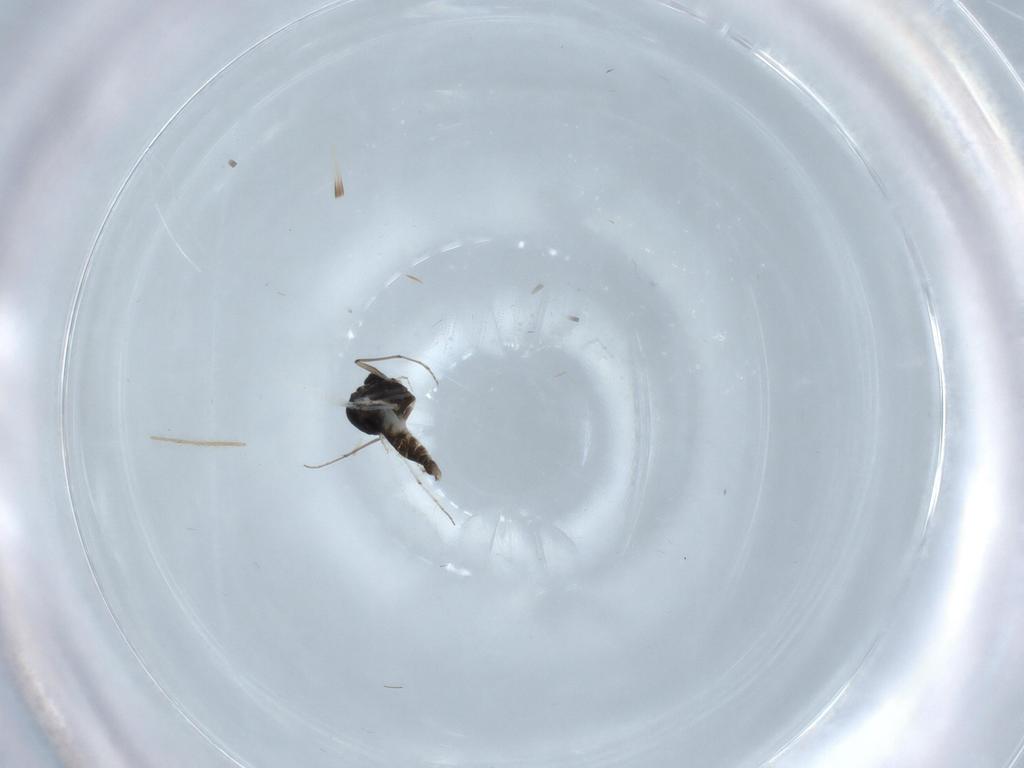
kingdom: Animalia
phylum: Arthropoda
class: Insecta
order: Diptera
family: Chironomidae
